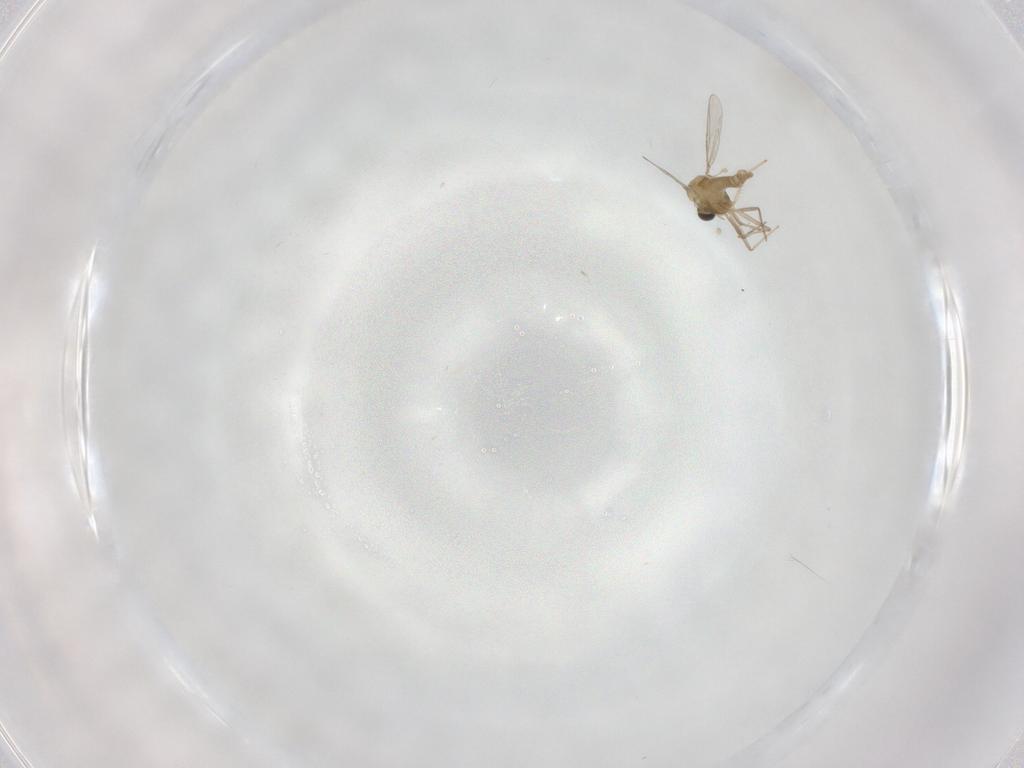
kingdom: Animalia
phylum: Arthropoda
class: Insecta
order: Diptera
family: Chironomidae
